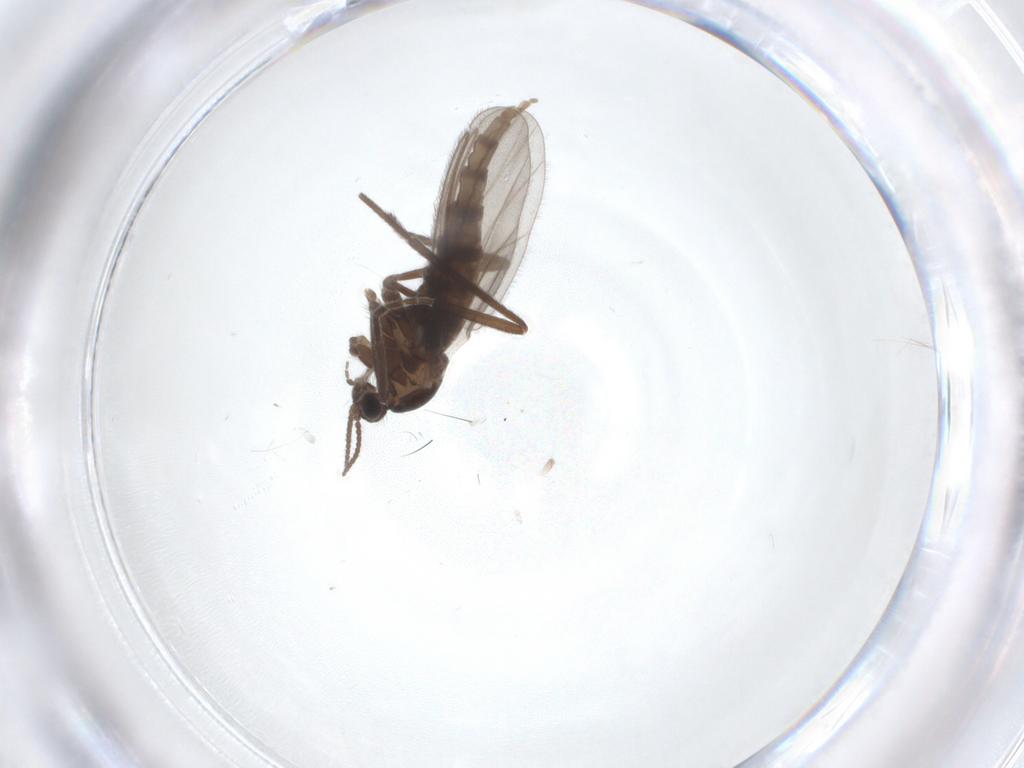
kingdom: Animalia
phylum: Arthropoda
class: Insecta
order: Diptera
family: Cecidomyiidae
